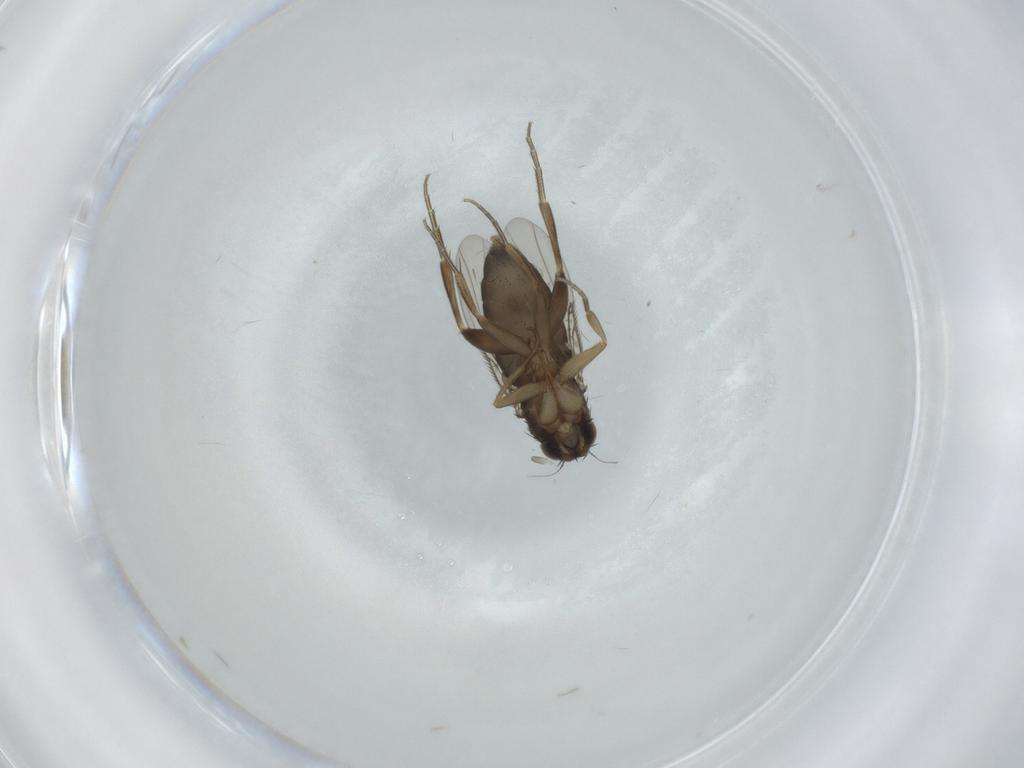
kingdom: Animalia
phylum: Arthropoda
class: Insecta
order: Diptera
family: Phoridae
